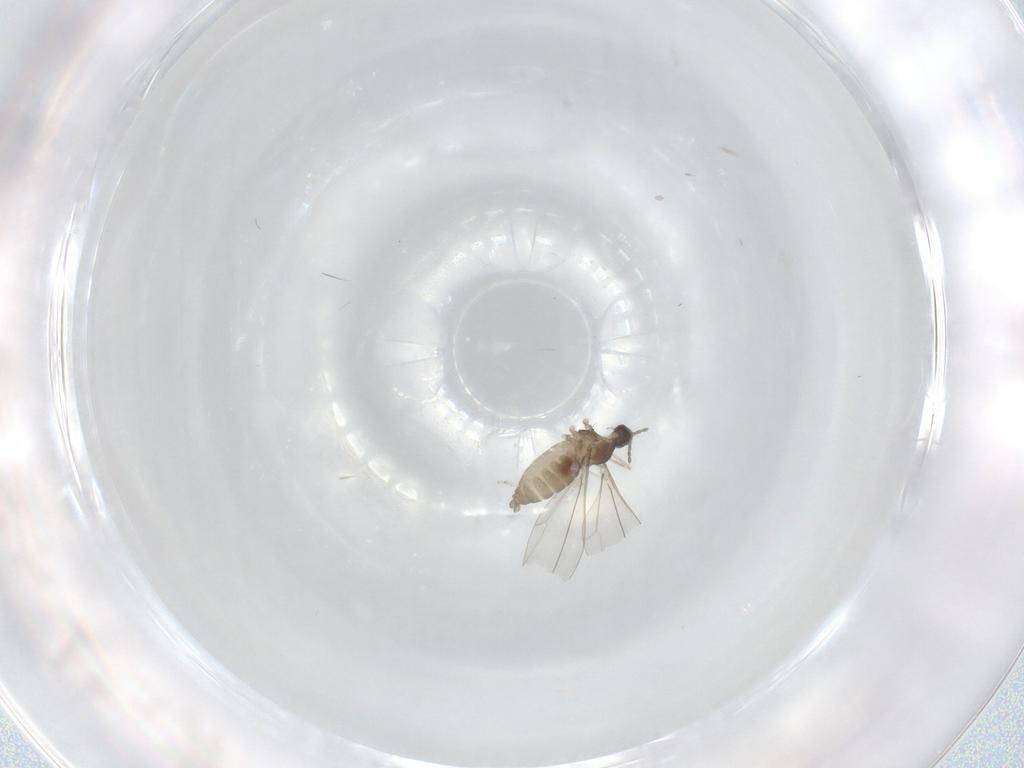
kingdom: Animalia
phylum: Arthropoda
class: Insecta
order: Diptera
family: Cecidomyiidae
